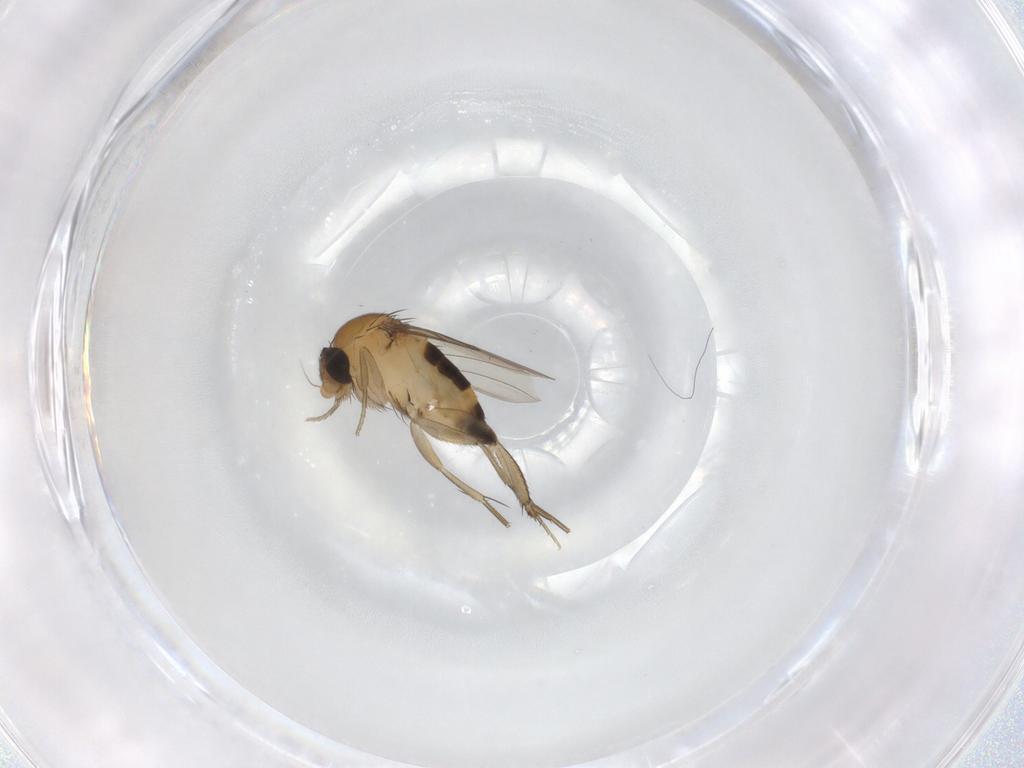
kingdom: Animalia
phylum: Arthropoda
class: Insecta
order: Diptera
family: Phoridae
